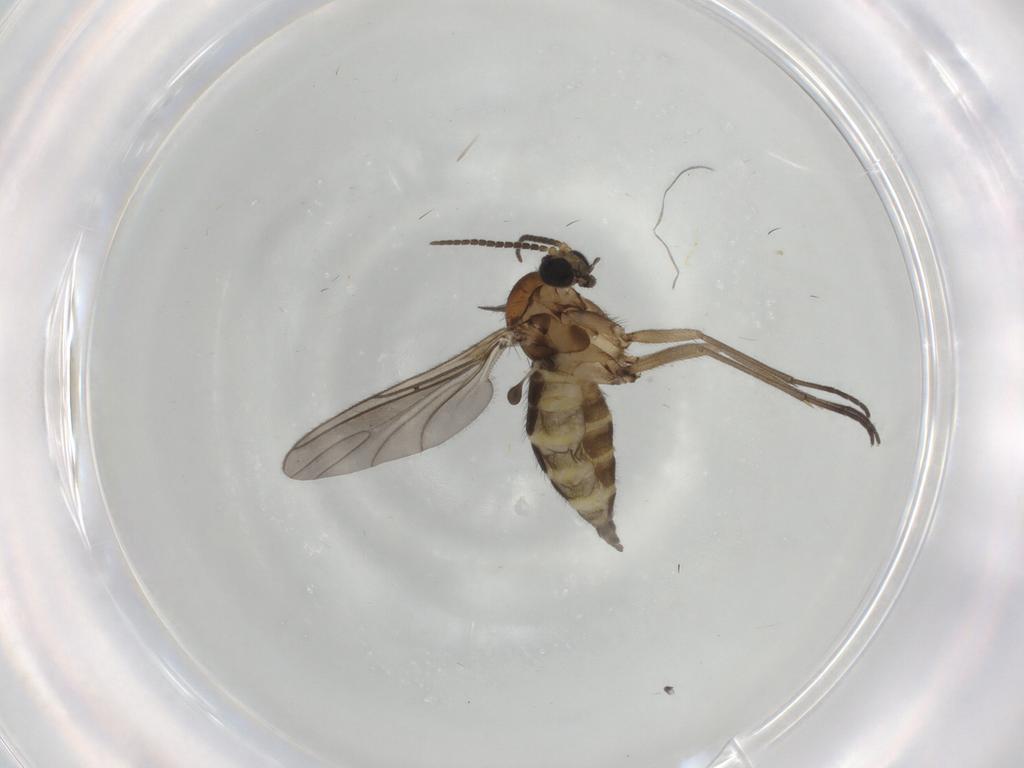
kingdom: Animalia
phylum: Arthropoda
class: Insecta
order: Diptera
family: Sciaridae
